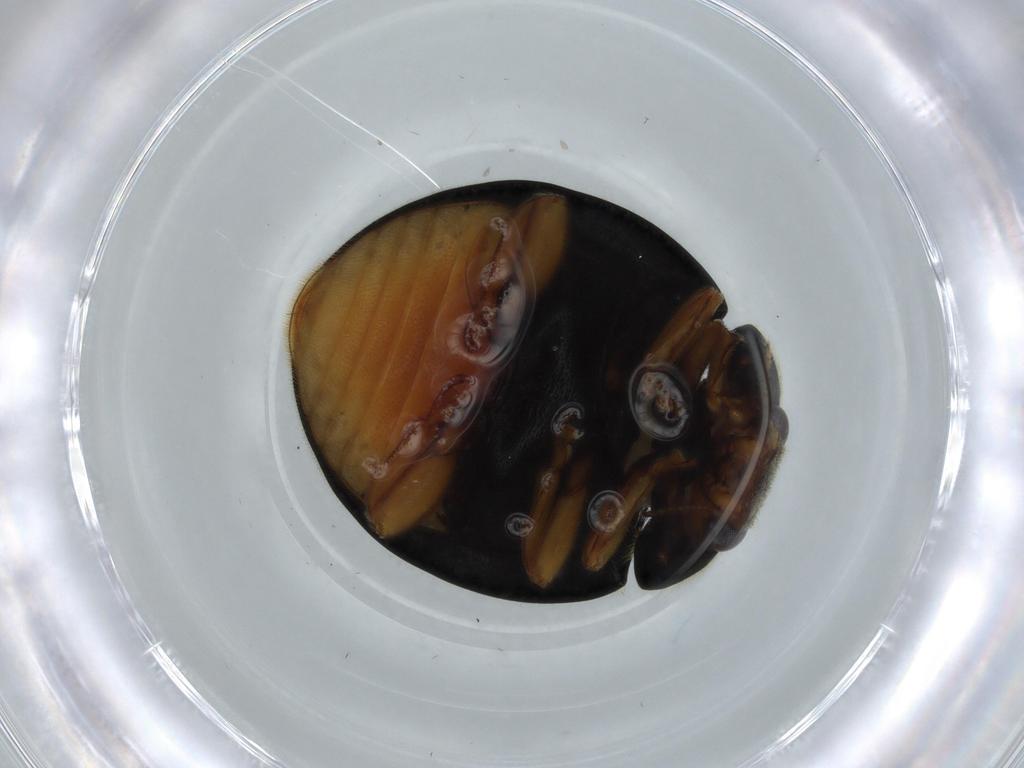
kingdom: Animalia
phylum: Arthropoda
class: Insecta
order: Coleoptera
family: Coccinellidae
